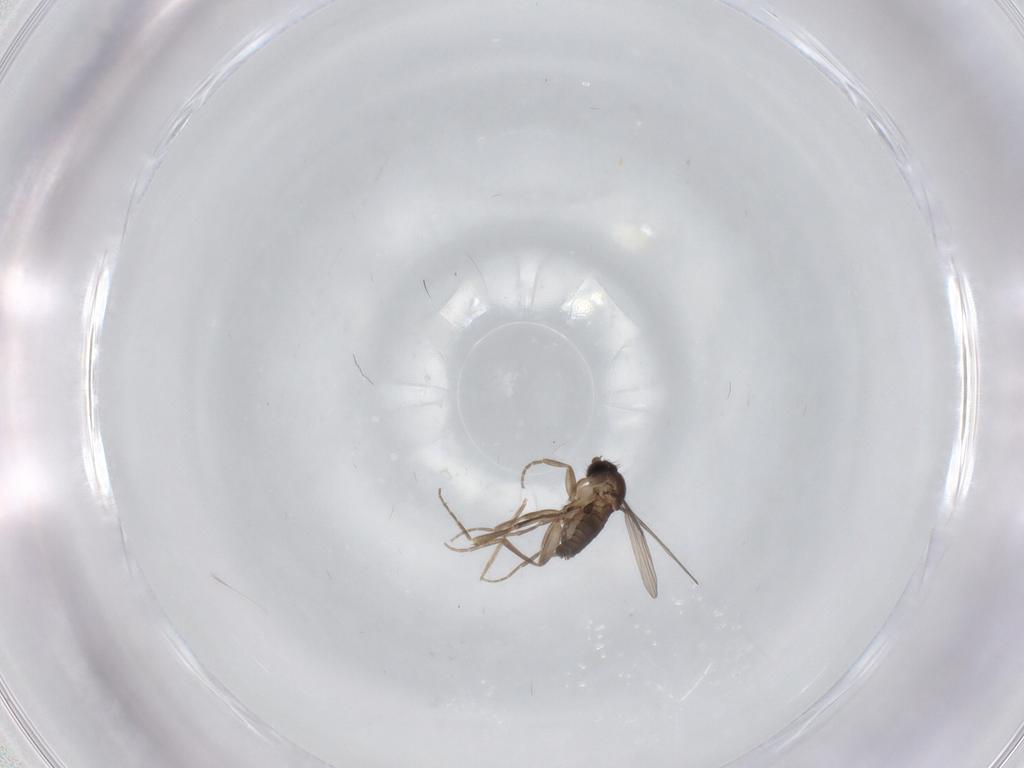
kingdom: Animalia
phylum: Arthropoda
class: Insecta
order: Diptera
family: Phoridae
